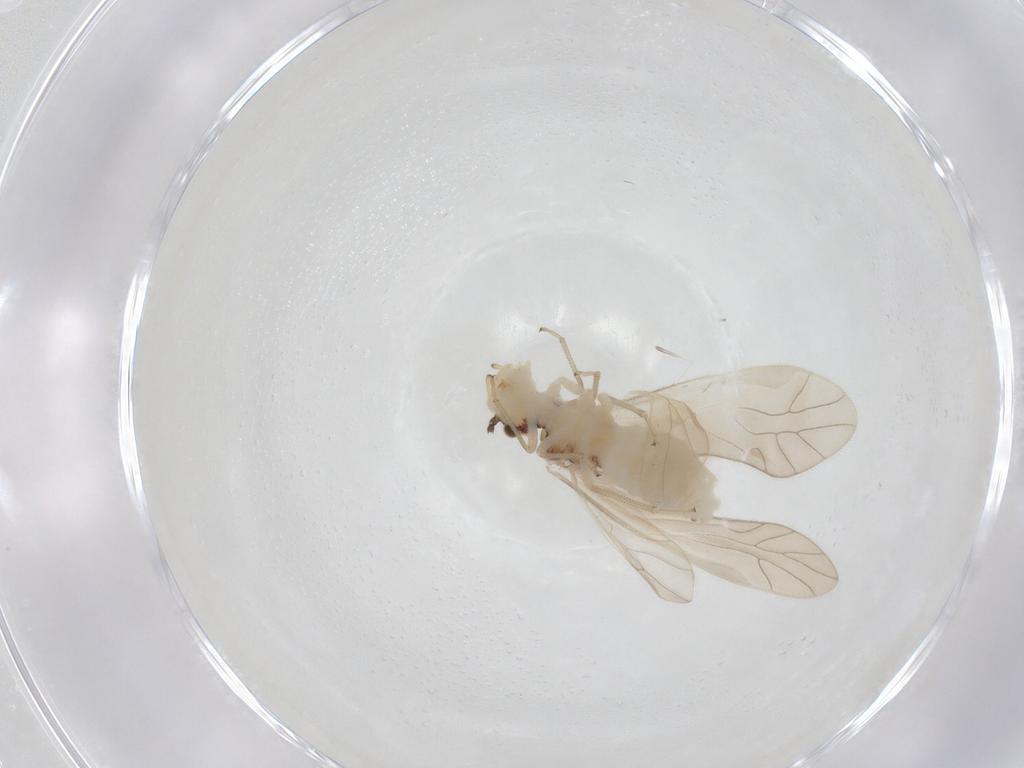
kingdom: Animalia
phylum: Arthropoda
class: Insecta
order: Psocodea
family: Caeciliusidae
